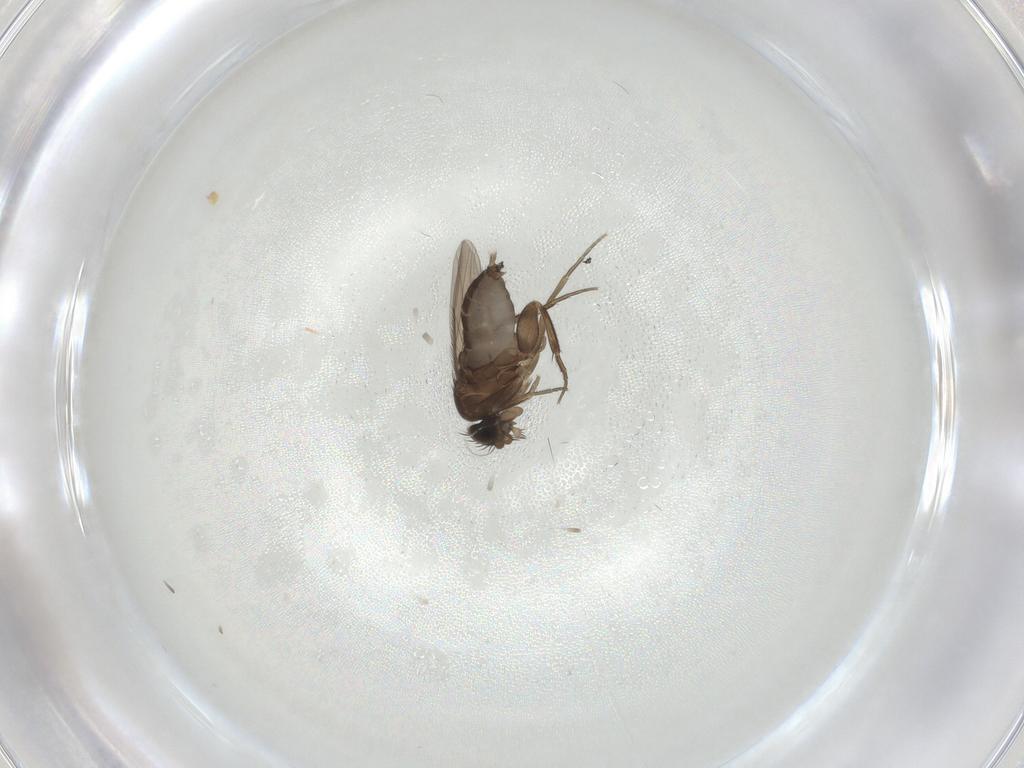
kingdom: Animalia
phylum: Arthropoda
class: Insecta
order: Diptera
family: Phoridae
